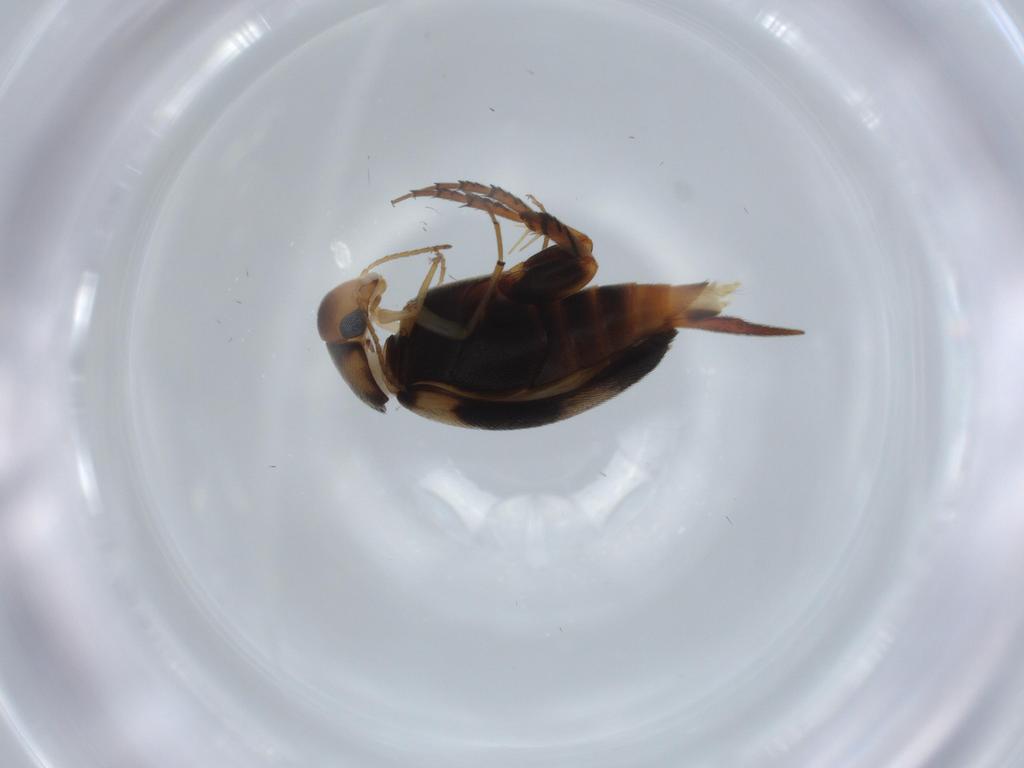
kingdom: Animalia
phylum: Arthropoda
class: Insecta
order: Coleoptera
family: Mordellidae
